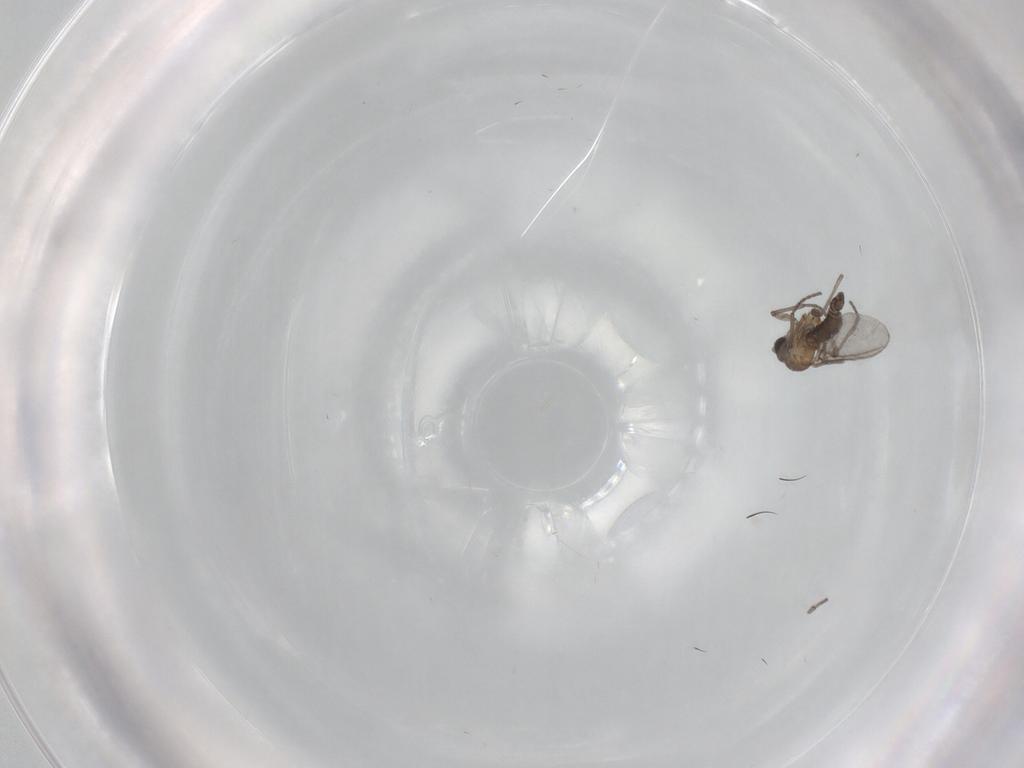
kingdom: Animalia
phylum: Arthropoda
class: Insecta
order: Diptera
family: Sciaridae
